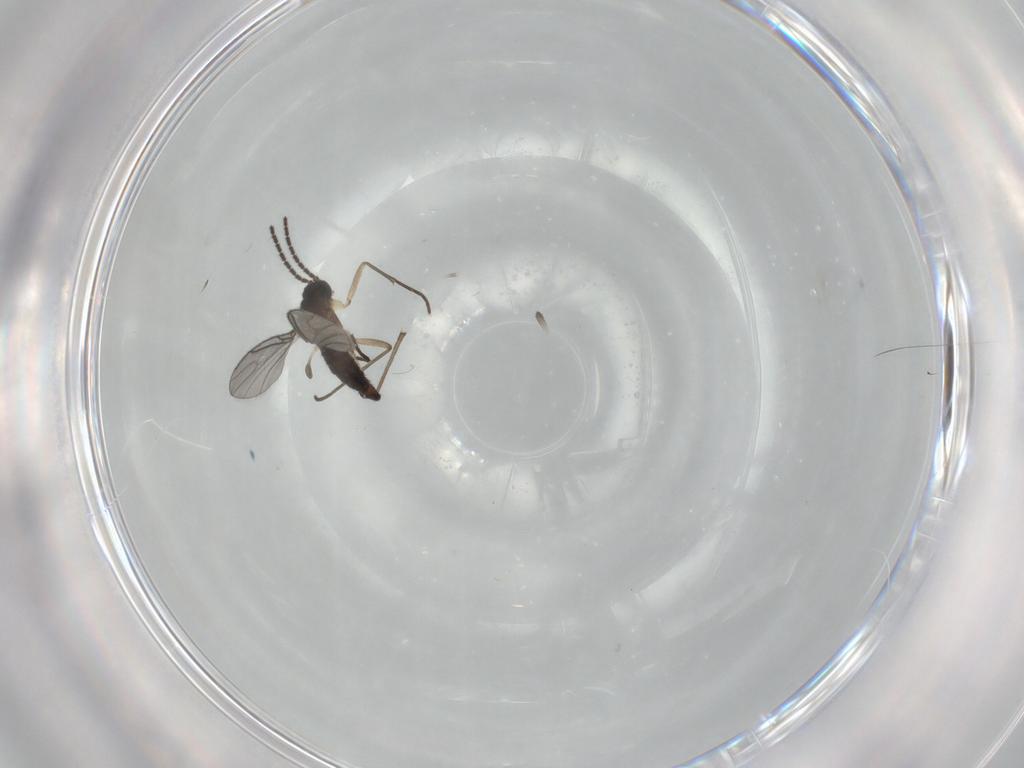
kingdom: Animalia
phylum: Arthropoda
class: Insecta
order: Diptera
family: Sciaridae
